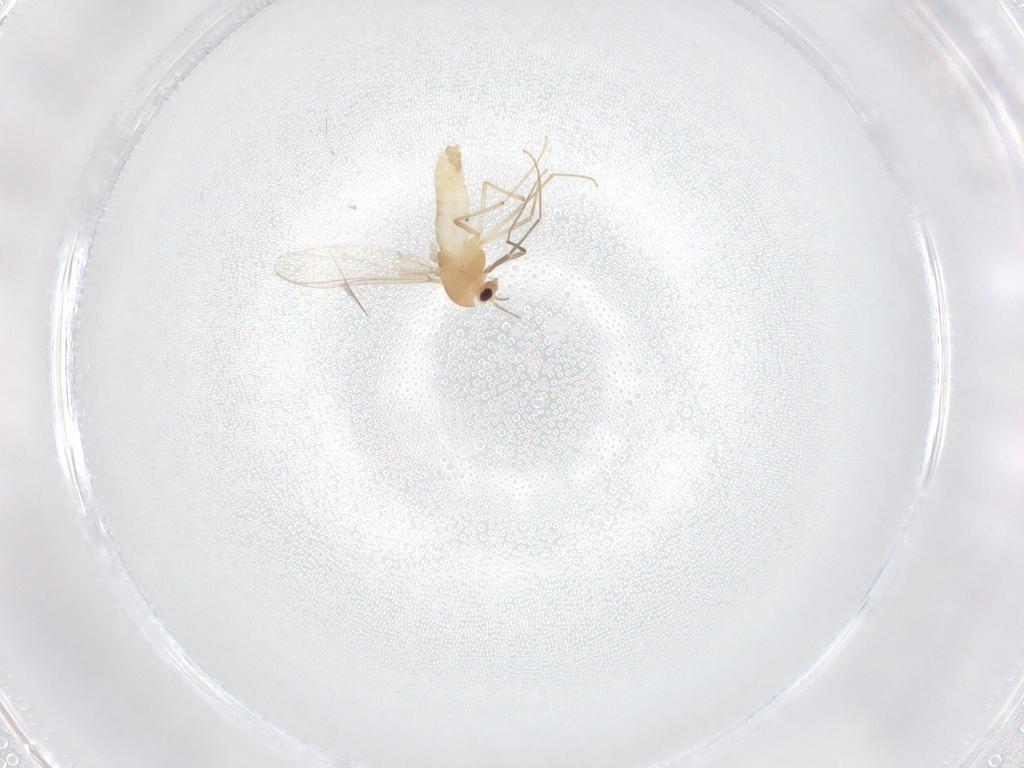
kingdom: Animalia
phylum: Arthropoda
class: Insecta
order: Diptera
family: Chironomidae
